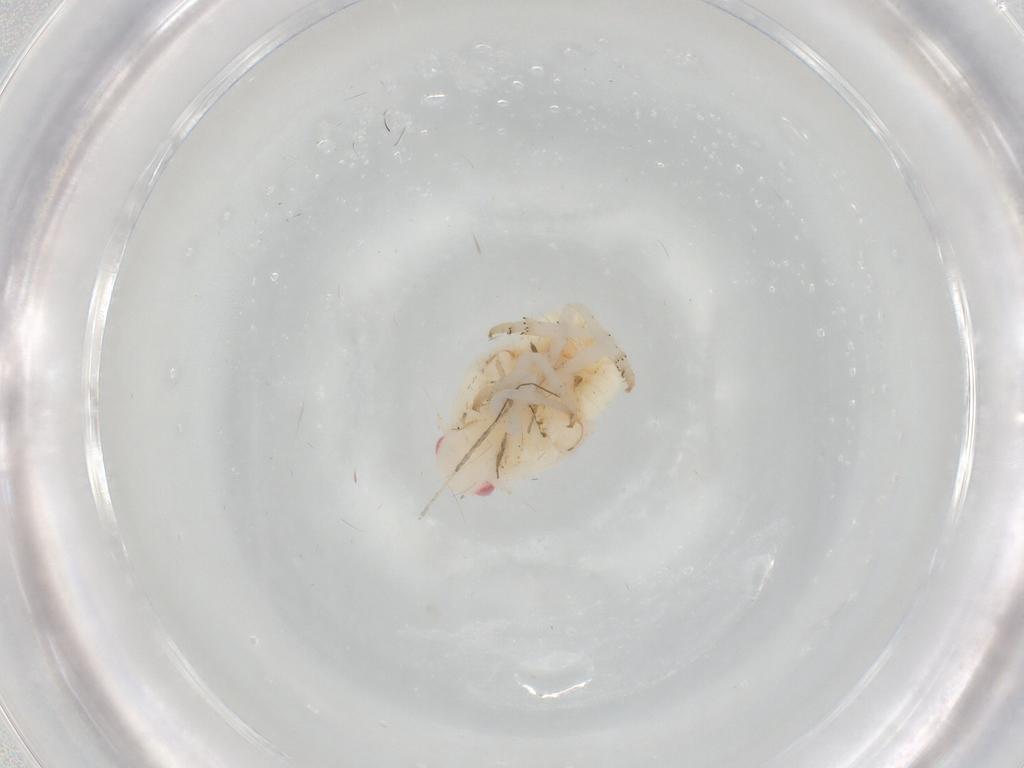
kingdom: Animalia
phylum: Arthropoda
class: Insecta
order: Hemiptera
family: Flatidae
